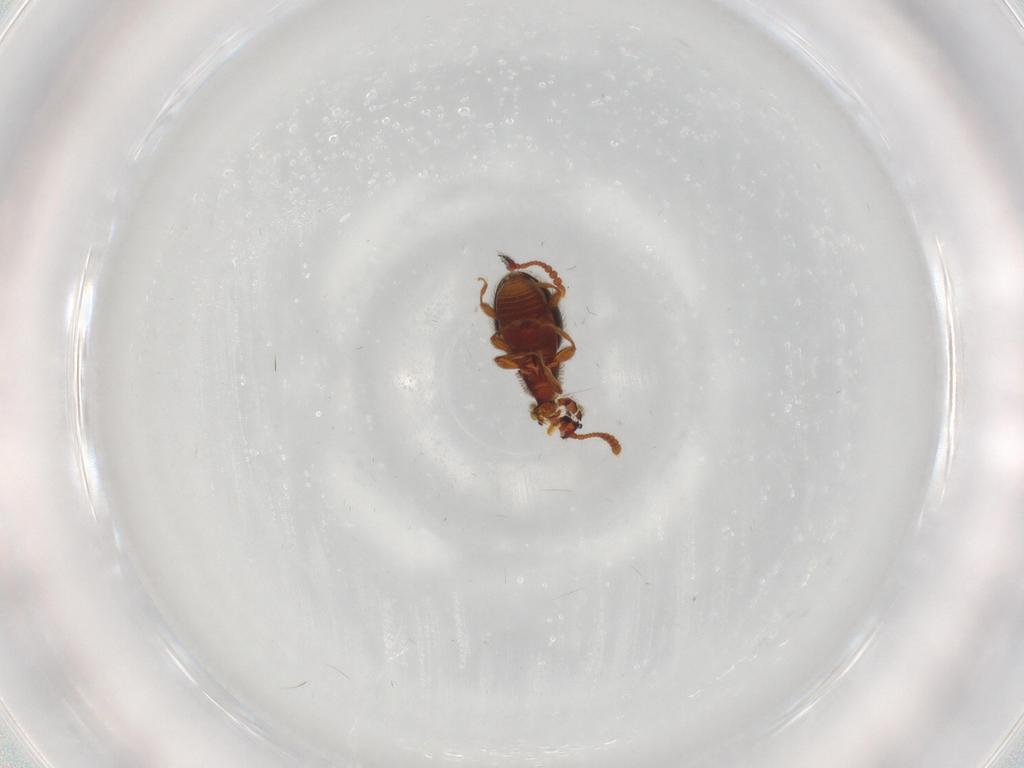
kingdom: Animalia
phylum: Arthropoda
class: Insecta
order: Coleoptera
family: Staphylinidae
